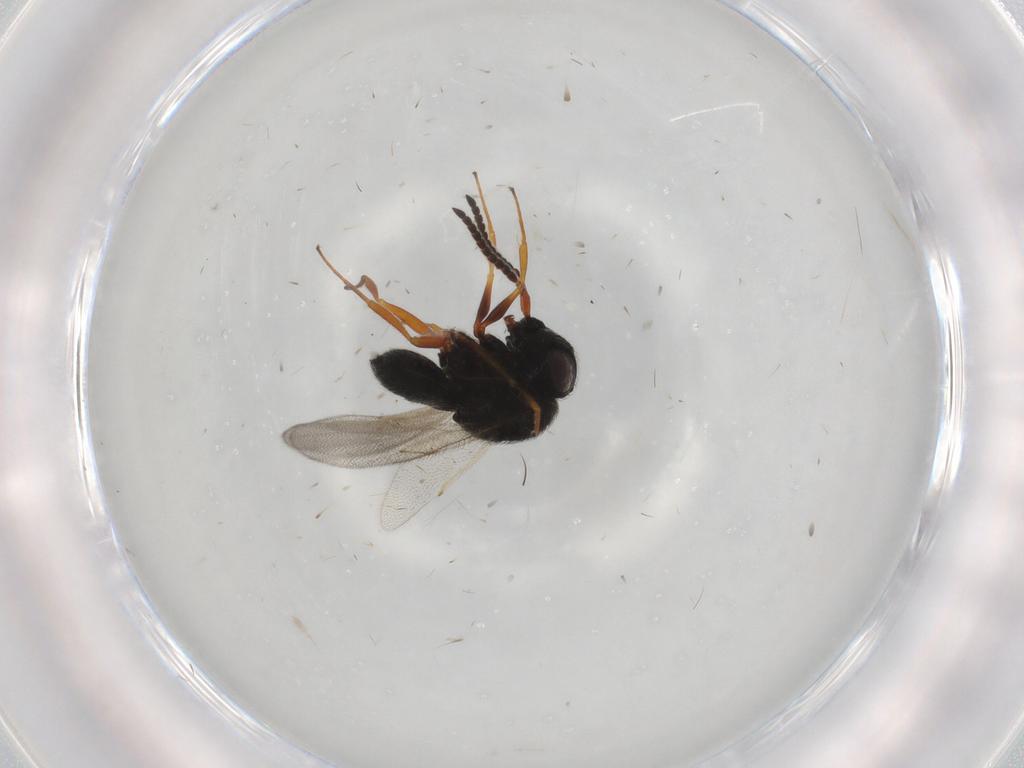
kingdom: Animalia
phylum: Arthropoda
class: Insecta
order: Hymenoptera
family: Scelionidae
